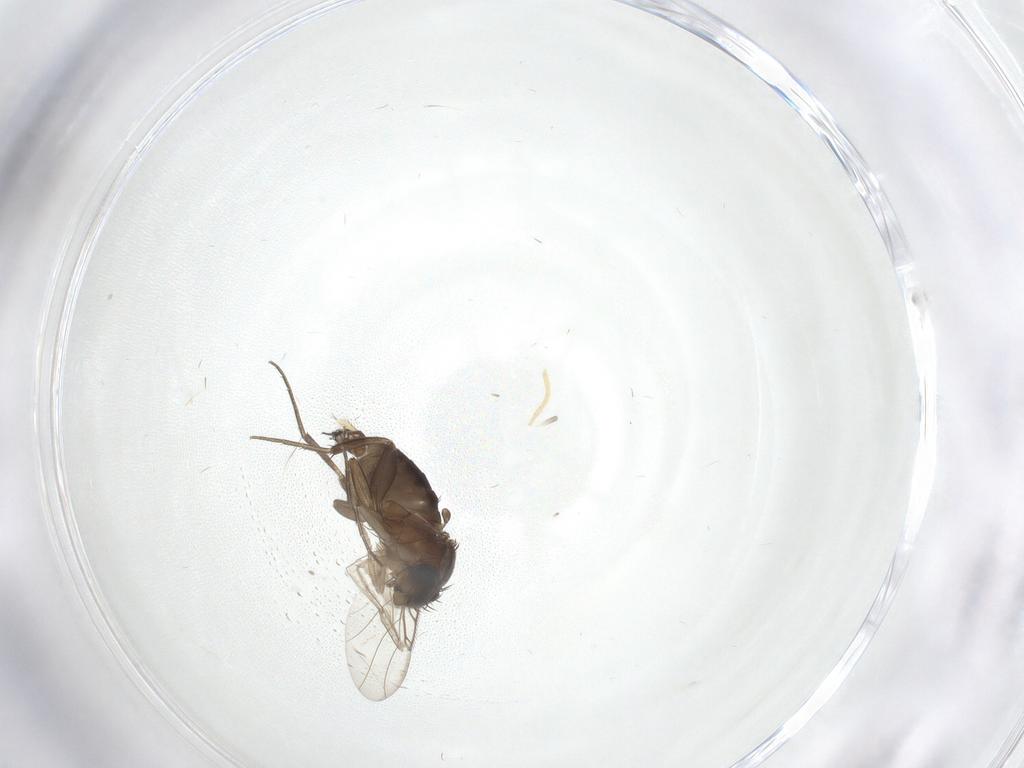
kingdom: Animalia
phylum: Arthropoda
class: Insecta
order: Diptera
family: Phoridae
